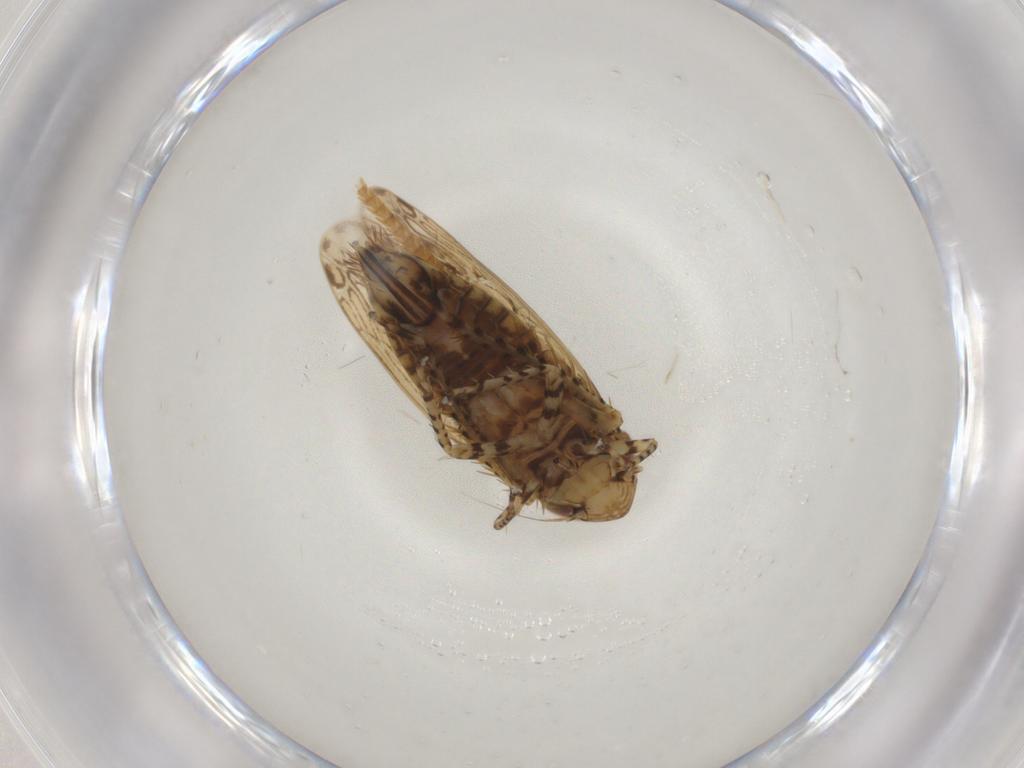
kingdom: Animalia
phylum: Arthropoda
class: Insecta
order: Hemiptera
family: Cicadellidae
